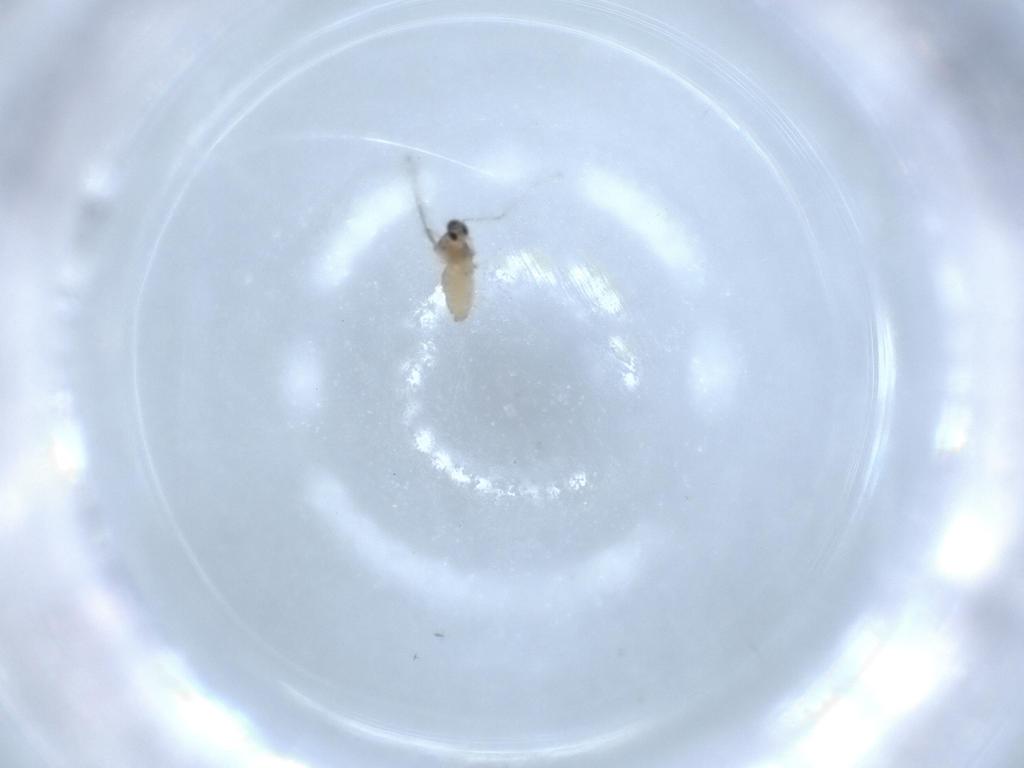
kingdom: Animalia
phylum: Arthropoda
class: Insecta
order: Diptera
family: Cecidomyiidae
